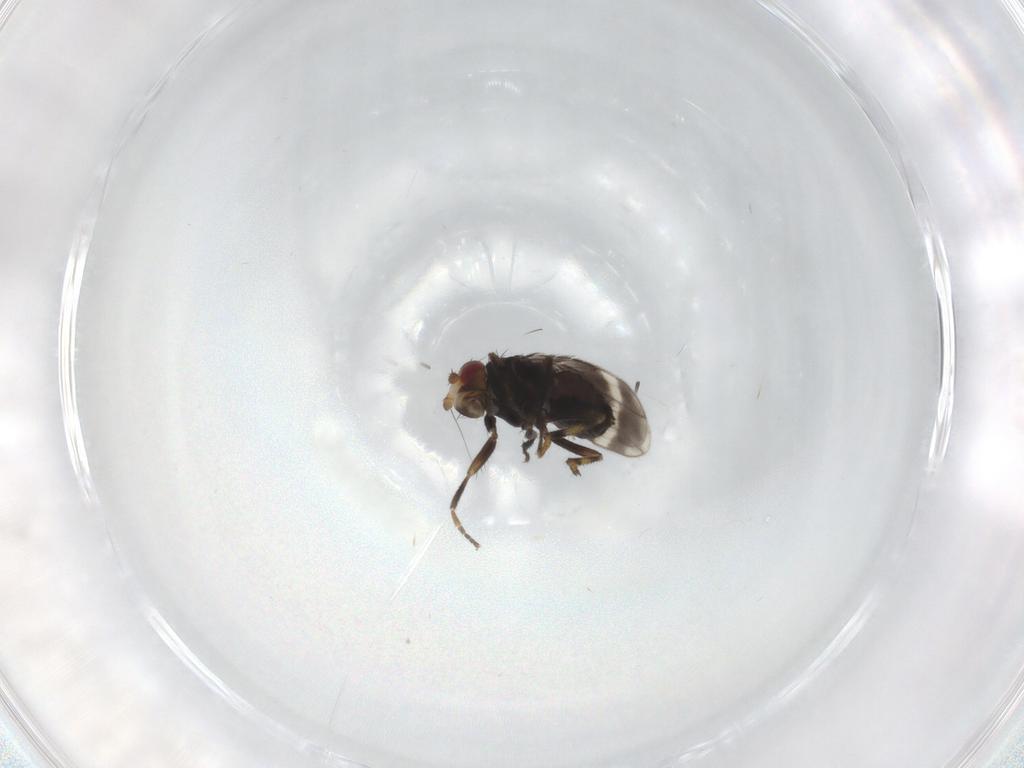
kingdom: Animalia
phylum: Arthropoda
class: Insecta
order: Diptera
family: Sphaeroceridae
